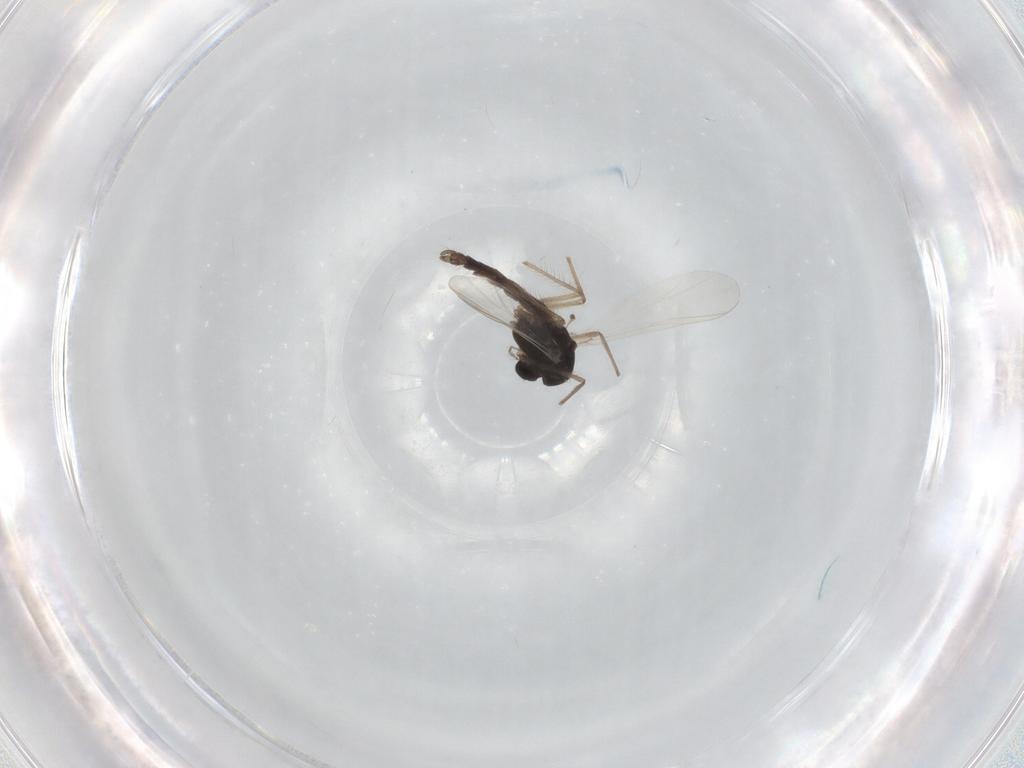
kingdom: Animalia
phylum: Arthropoda
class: Insecta
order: Diptera
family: Chironomidae
